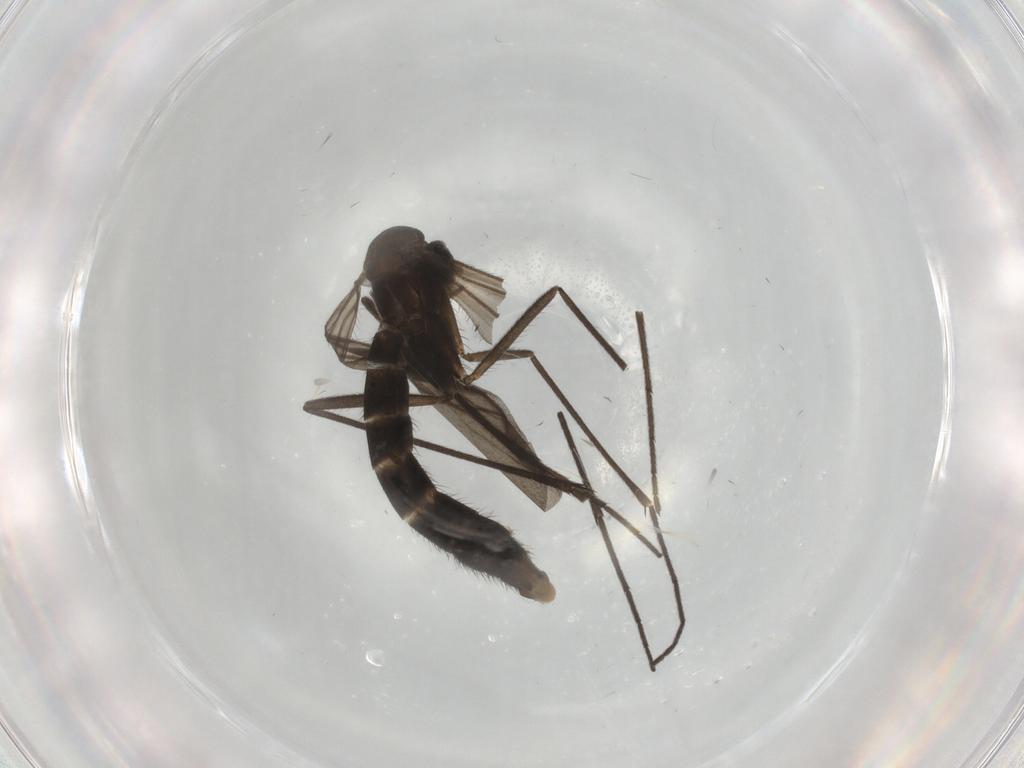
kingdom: Animalia
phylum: Arthropoda
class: Insecta
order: Diptera
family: Keroplatidae
